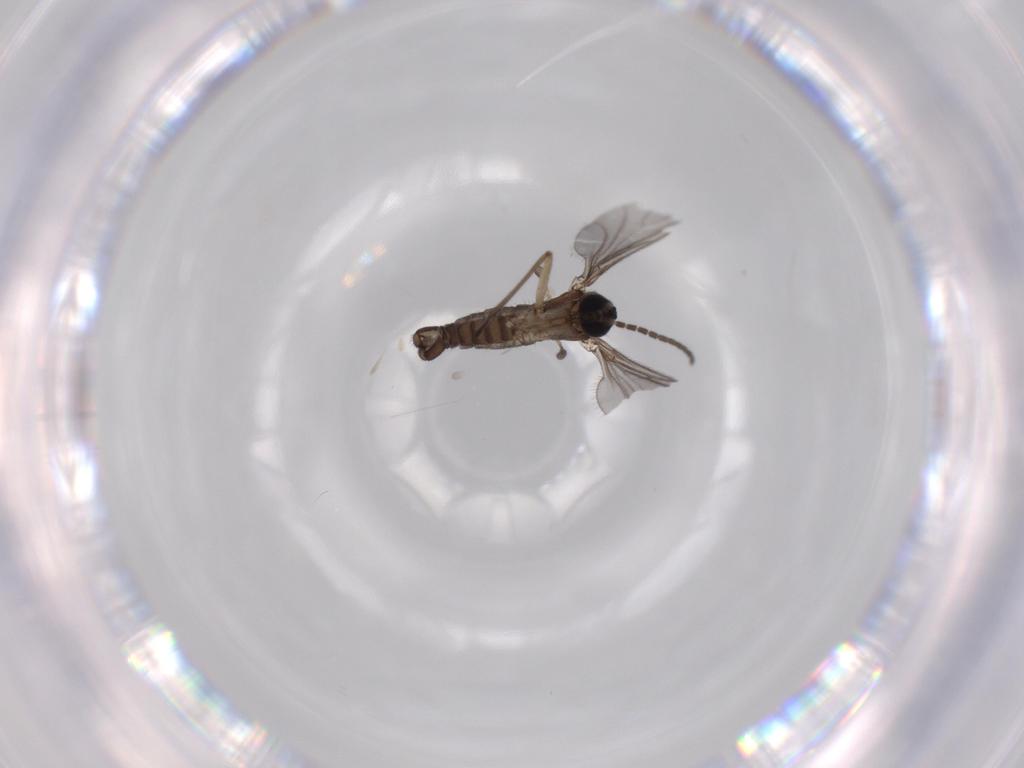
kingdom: Animalia
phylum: Arthropoda
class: Insecta
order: Diptera
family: Sciaridae
